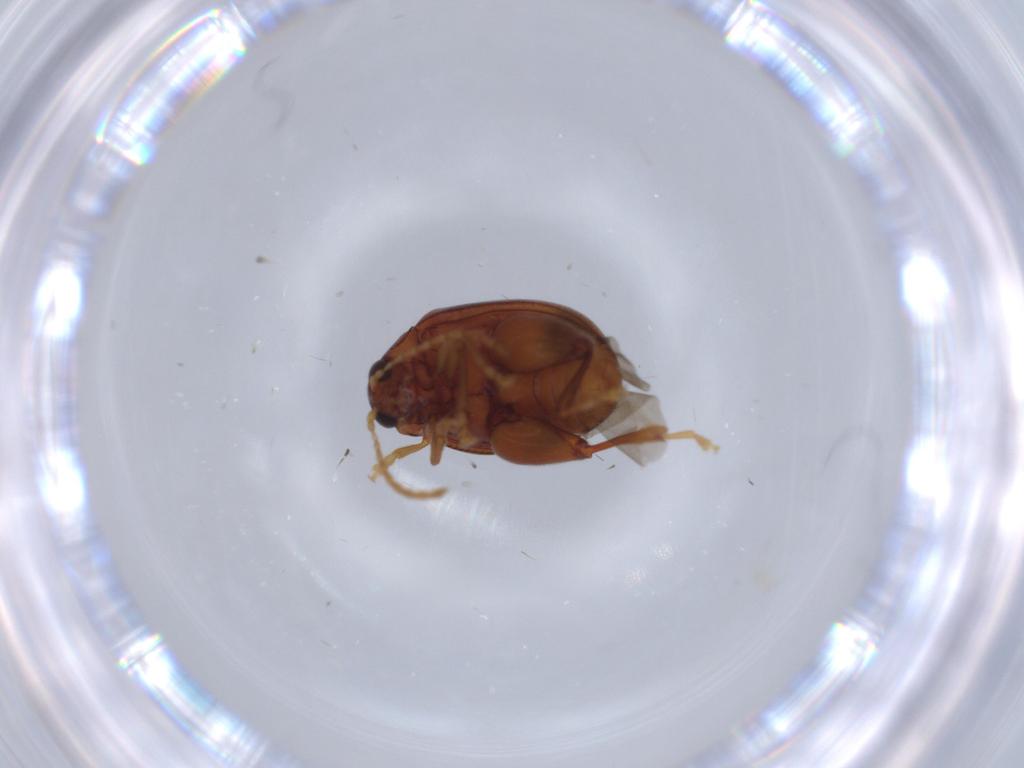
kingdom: Animalia
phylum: Arthropoda
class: Insecta
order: Coleoptera
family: Chrysomelidae
